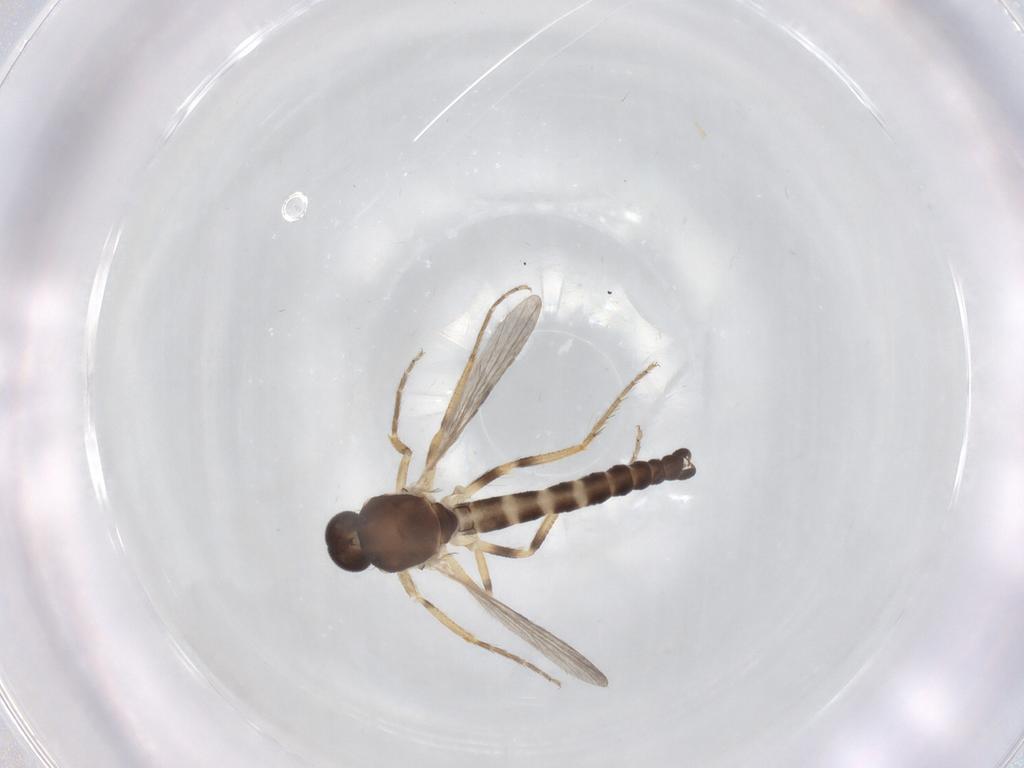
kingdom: Animalia
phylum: Arthropoda
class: Insecta
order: Diptera
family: Ceratopogonidae
